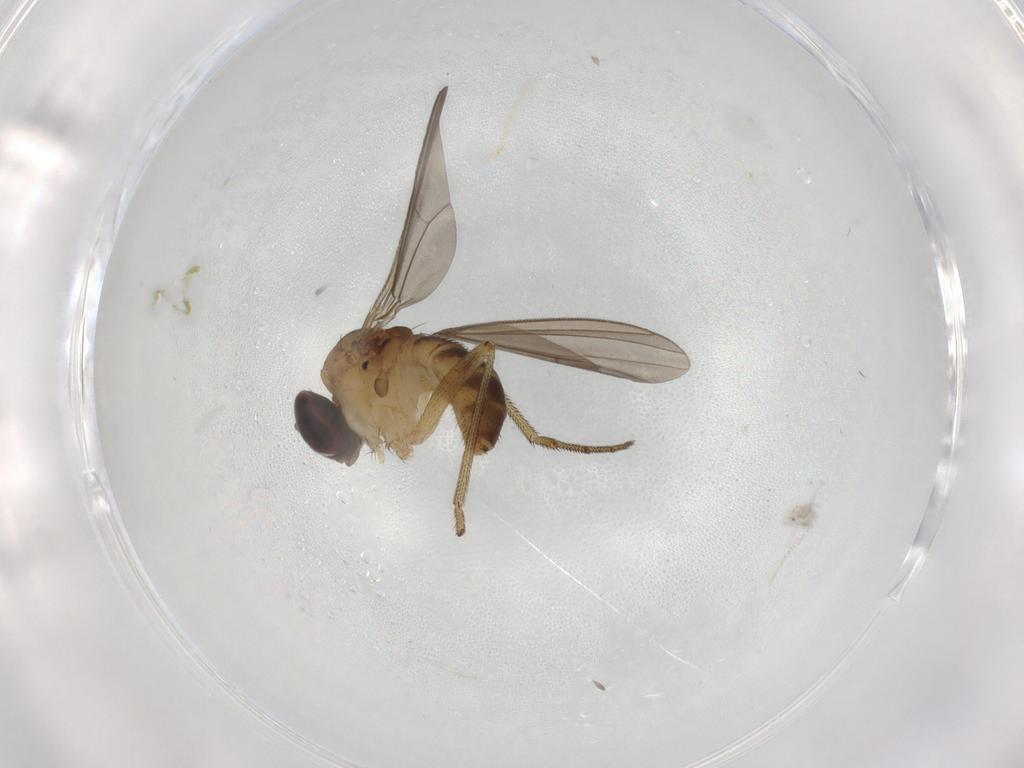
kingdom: Animalia
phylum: Arthropoda
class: Insecta
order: Diptera
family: Dolichopodidae
